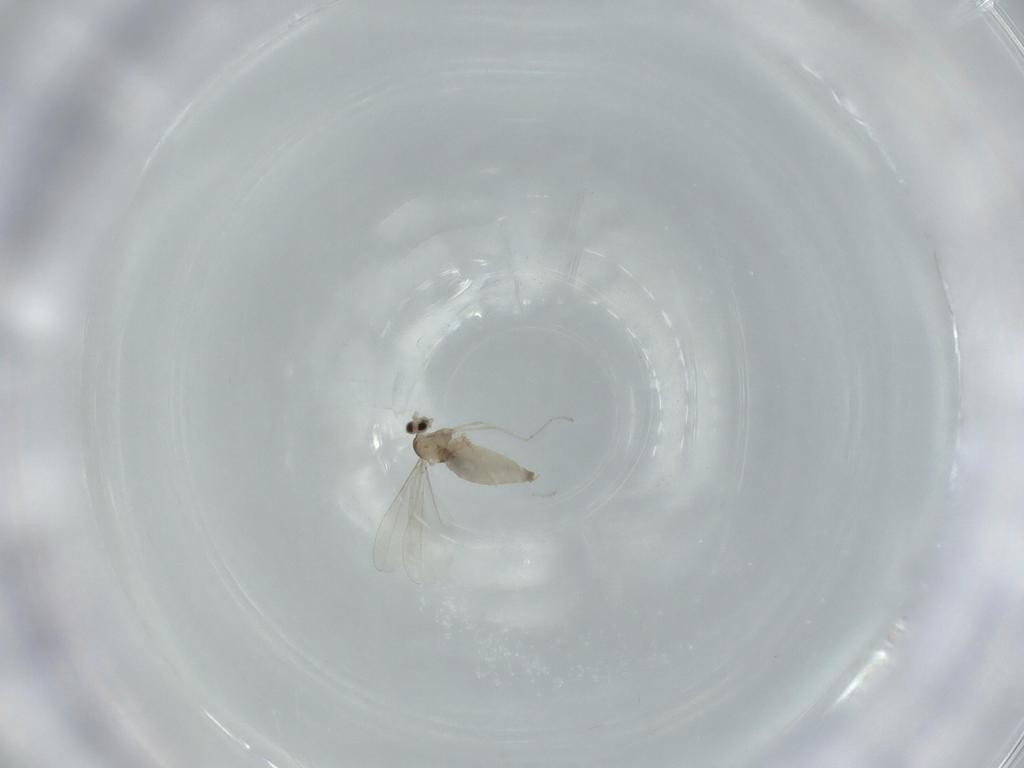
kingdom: Animalia
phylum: Arthropoda
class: Insecta
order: Diptera
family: Cecidomyiidae
